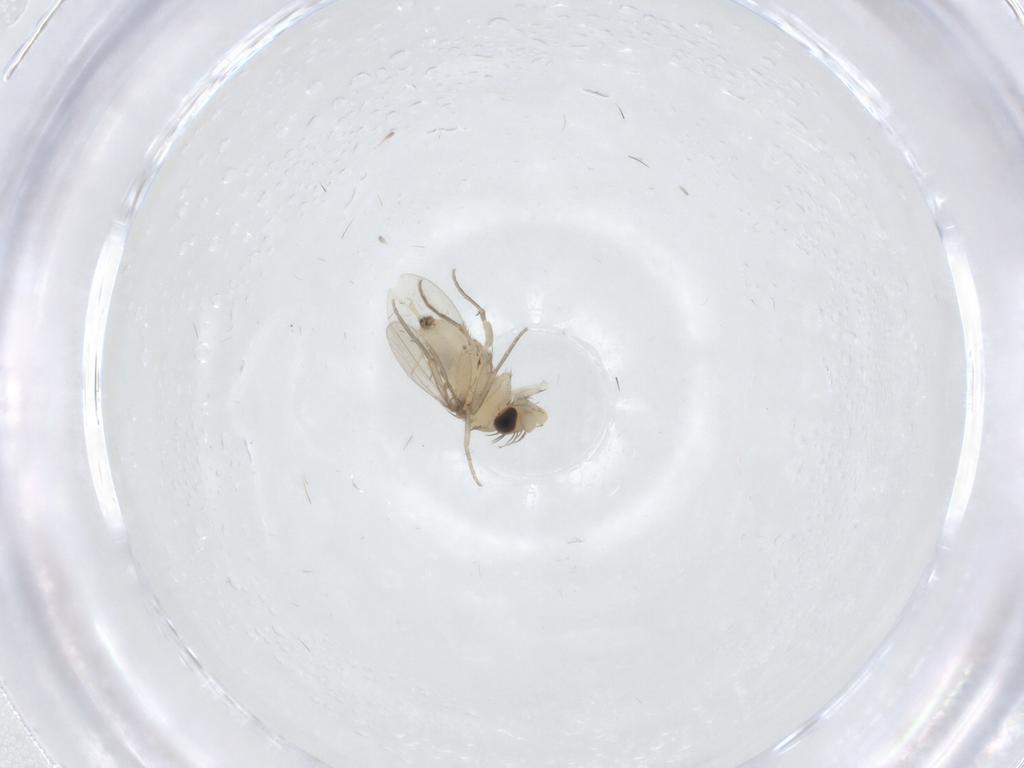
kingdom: Animalia
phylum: Arthropoda
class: Insecta
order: Diptera
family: Phoridae
